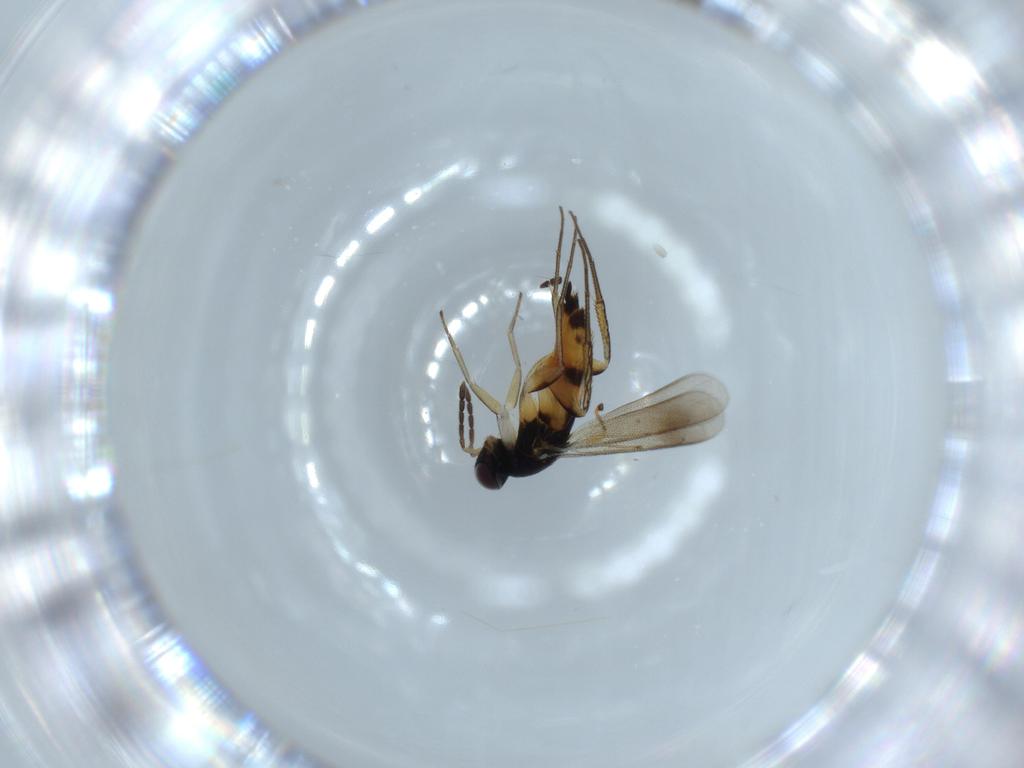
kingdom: Animalia
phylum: Arthropoda
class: Insecta
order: Hymenoptera
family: Scelionidae
